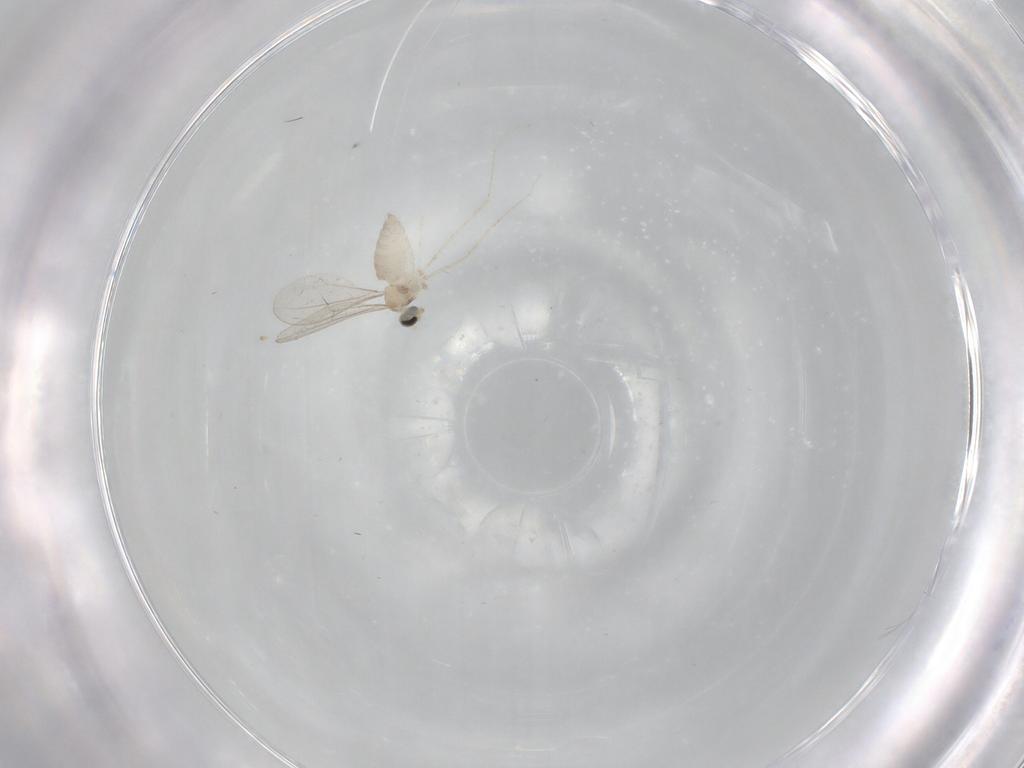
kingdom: Animalia
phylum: Arthropoda
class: Insecta
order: Diptera
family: Cecidomyiidae
